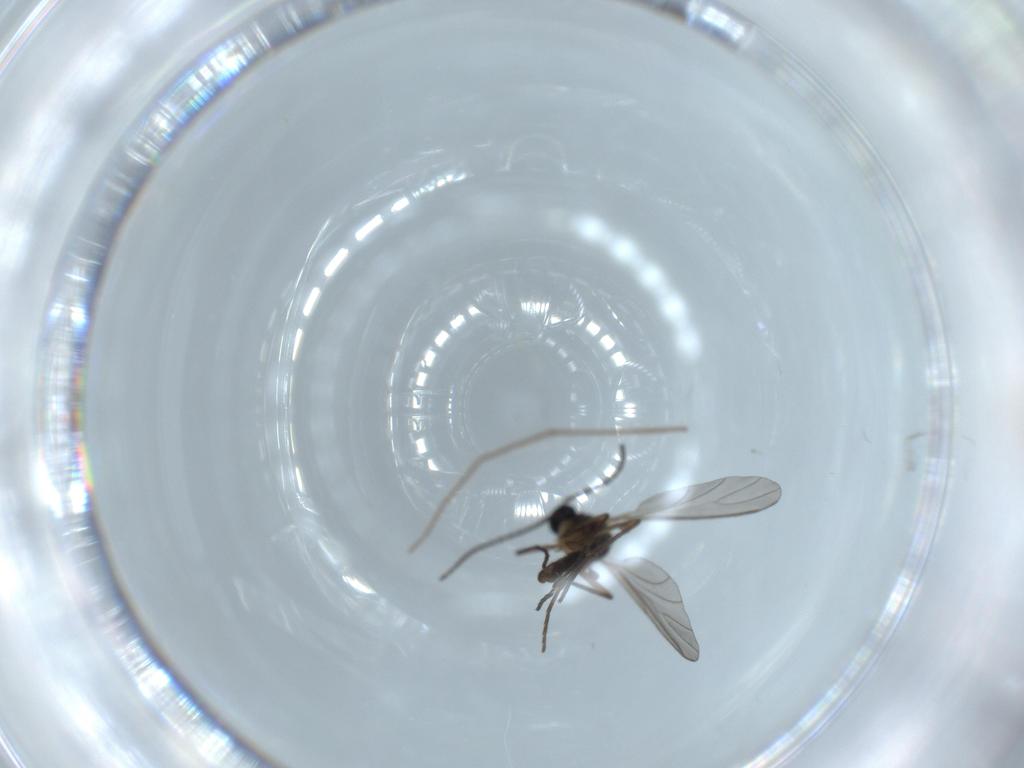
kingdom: Animalia
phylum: Arthropoda
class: Insecta
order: Diptera
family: Sciaridae
